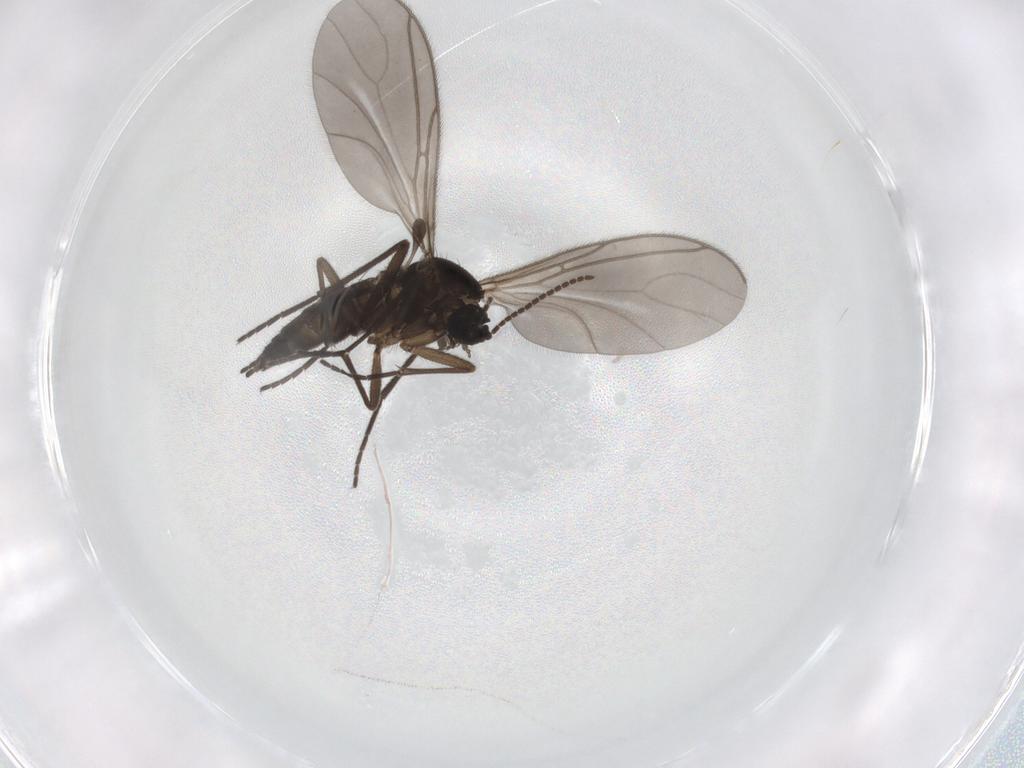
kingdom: Animalia
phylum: Arthropoda
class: Insecta
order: Diptera
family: Sciaridae
